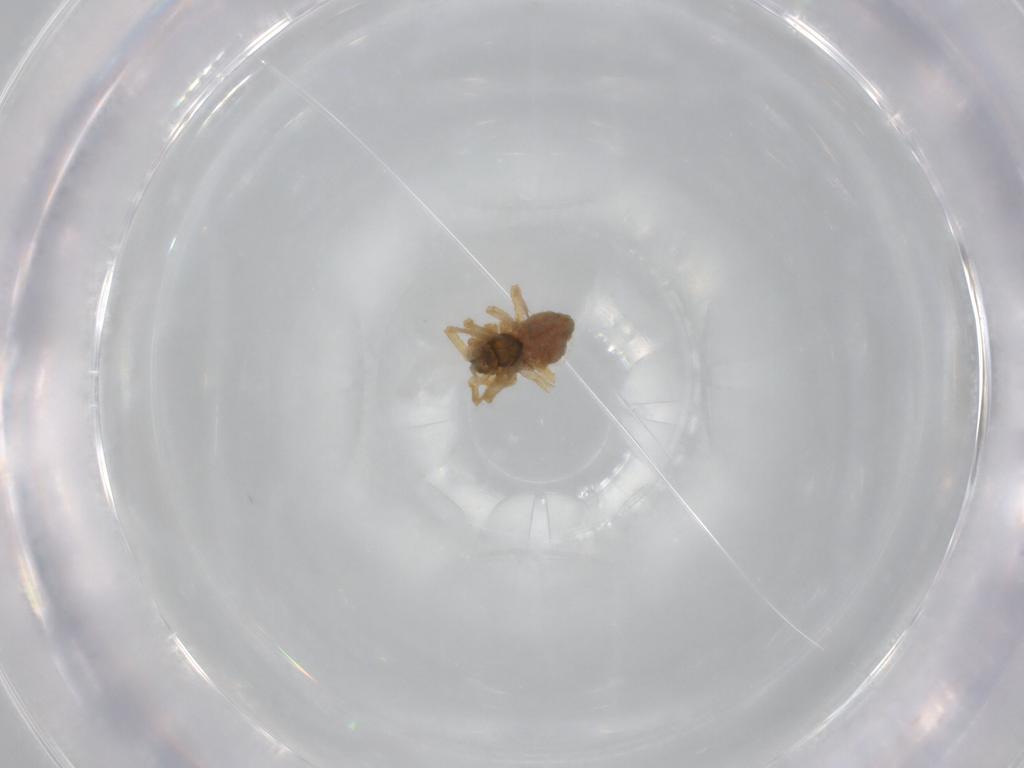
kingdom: Animalia
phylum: Arthropoda
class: Arachnida
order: Araneae
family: Linyphiidae
